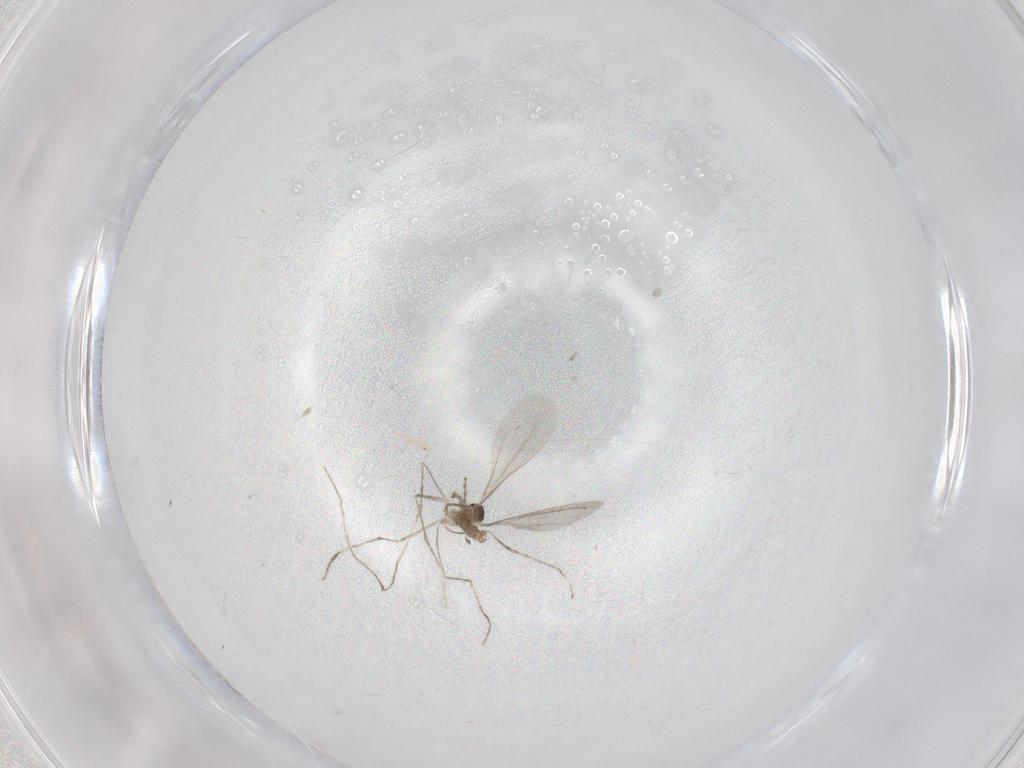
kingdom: Animalia
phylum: Arthropoda
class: Insecta
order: Diptera
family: Cecidomyiidae
